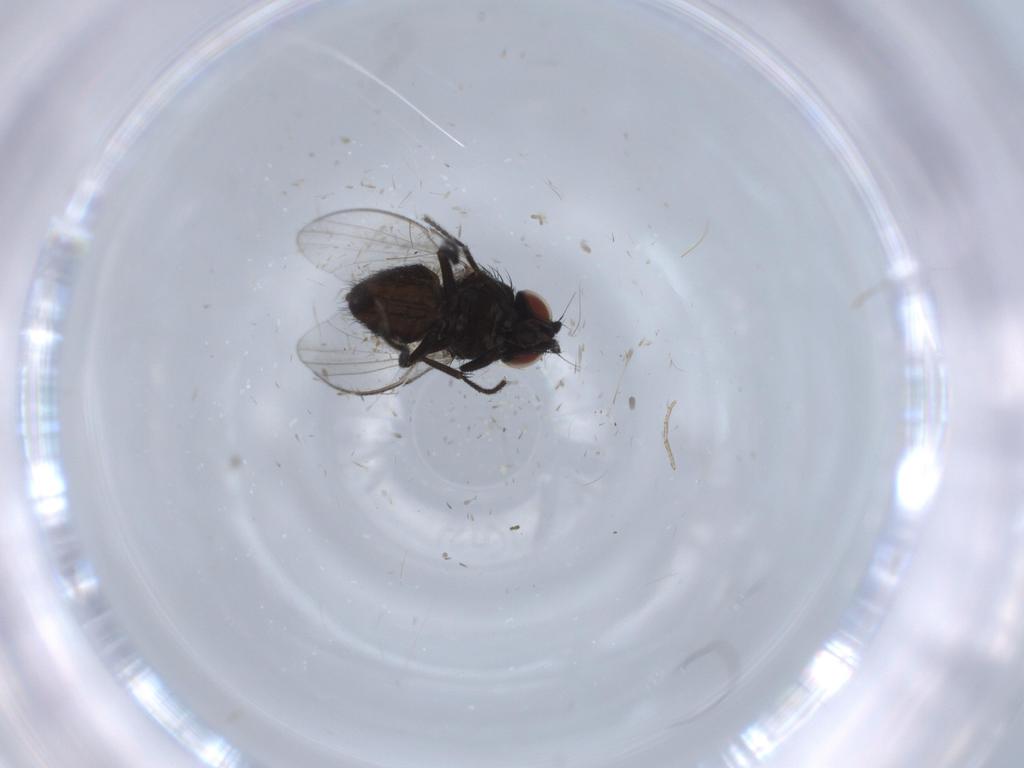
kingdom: Animalia
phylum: Arthropoda
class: Insecta
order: Diptera
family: Milichiidae
